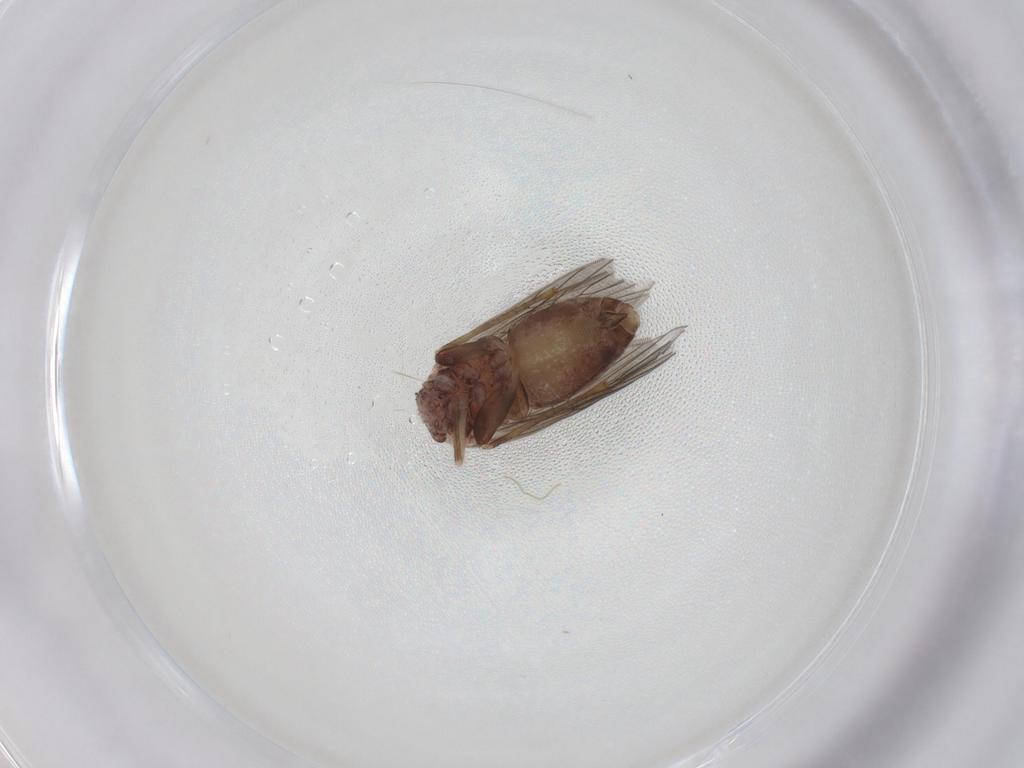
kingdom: Animalia
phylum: Arthropoda
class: Insecta
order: Psocodea
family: Lepidopsocidae
